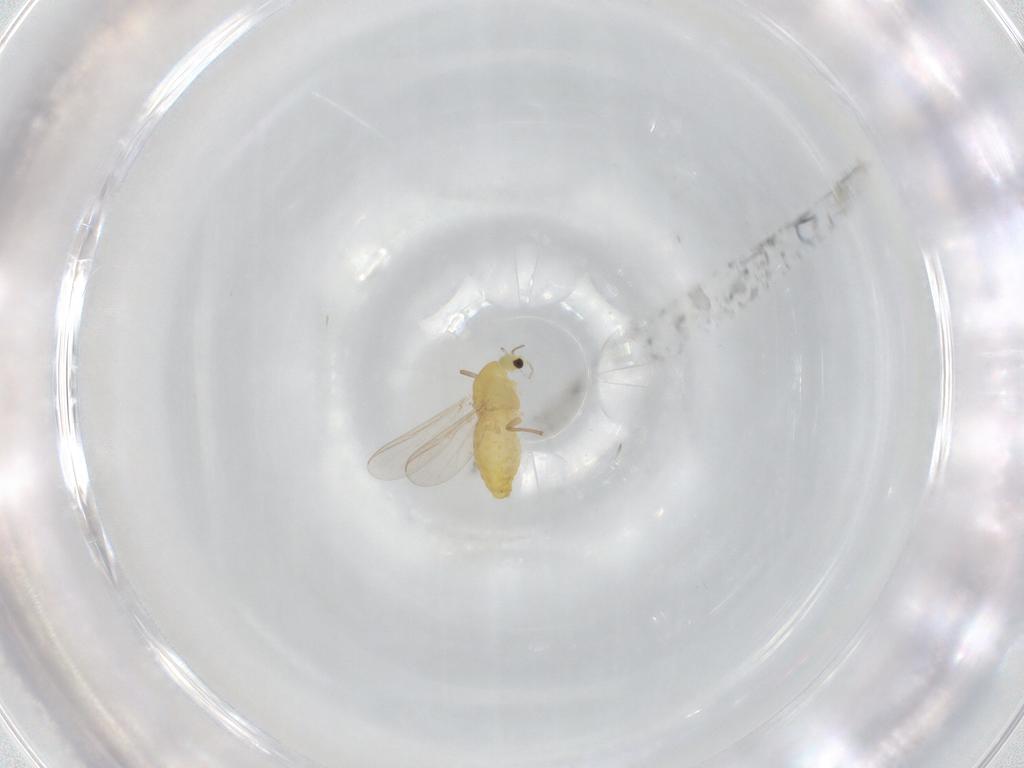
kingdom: Animalia
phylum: Arthropoda
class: Insecta
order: Diptera
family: Chironomidae
